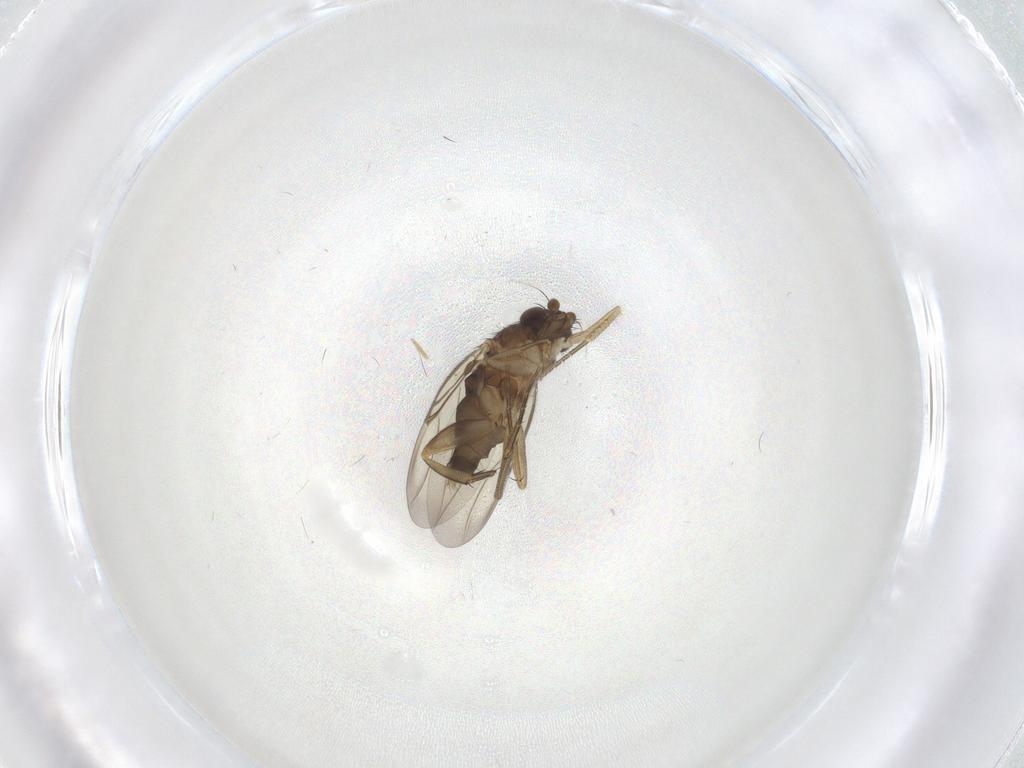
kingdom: Animalia
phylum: Arthropoda
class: Insecta
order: Diptera
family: Phoridae
